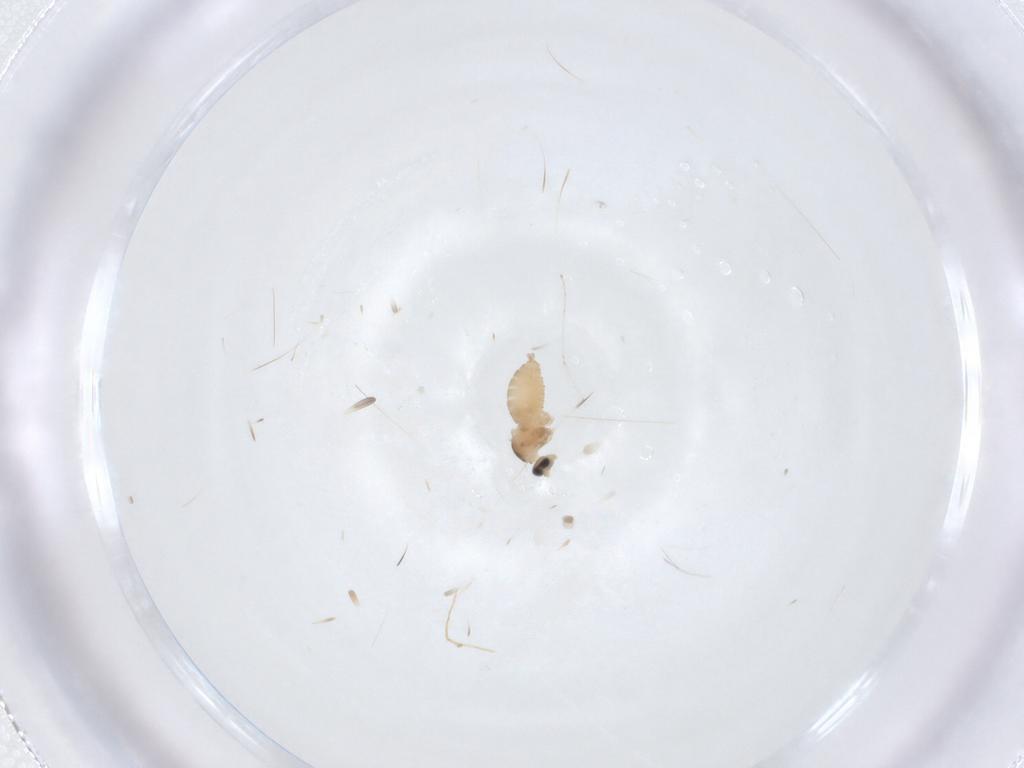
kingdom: Animalia
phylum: Arthropoda
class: Insecta
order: Diptera
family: Cecidomyiidae
